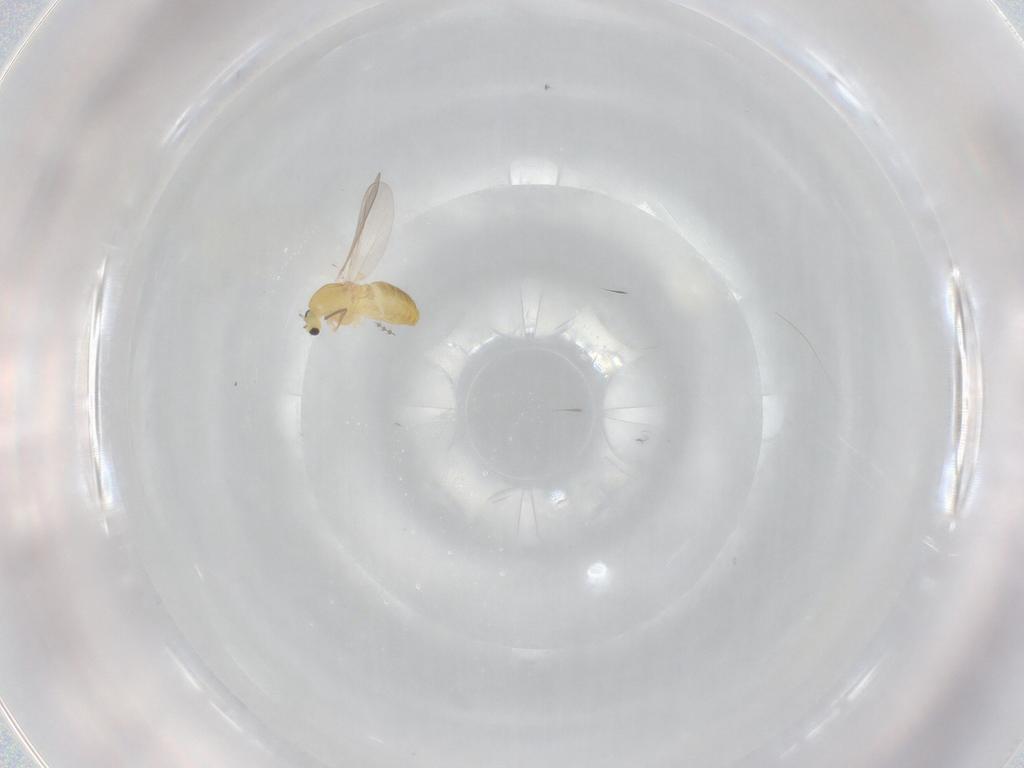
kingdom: Animalia
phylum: Arthropoda
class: Insecta
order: Diptera
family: Chironomidae
